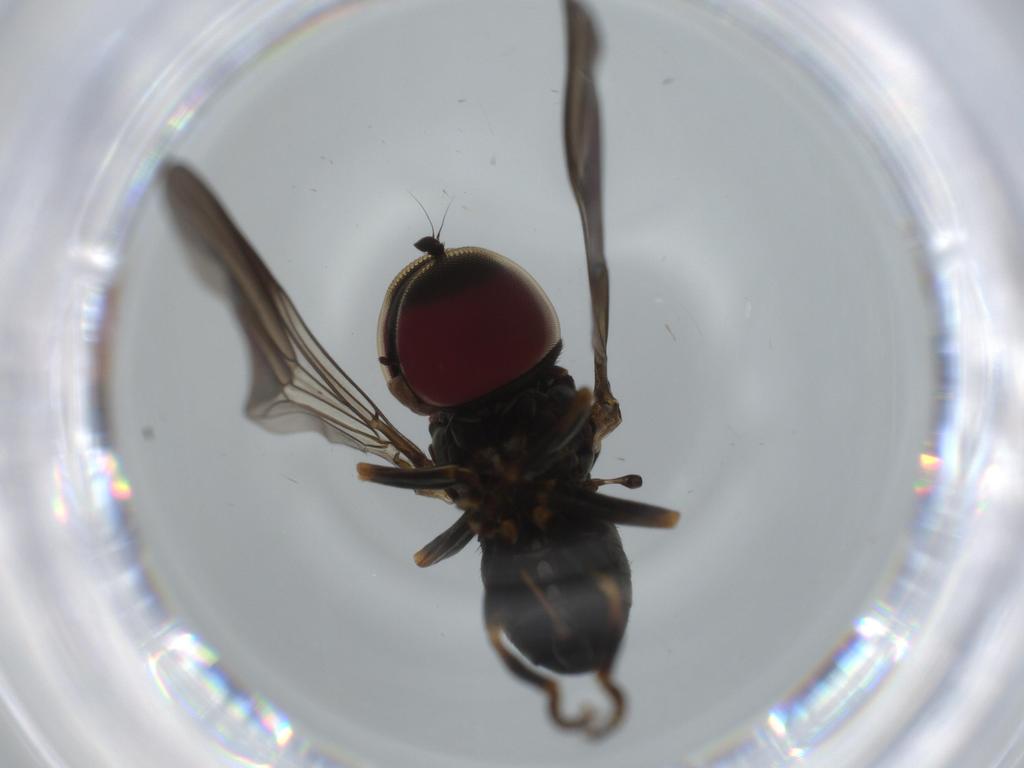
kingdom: Animalia
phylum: Arthropoda
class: Insecta
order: Diptera
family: Pipunculidae
